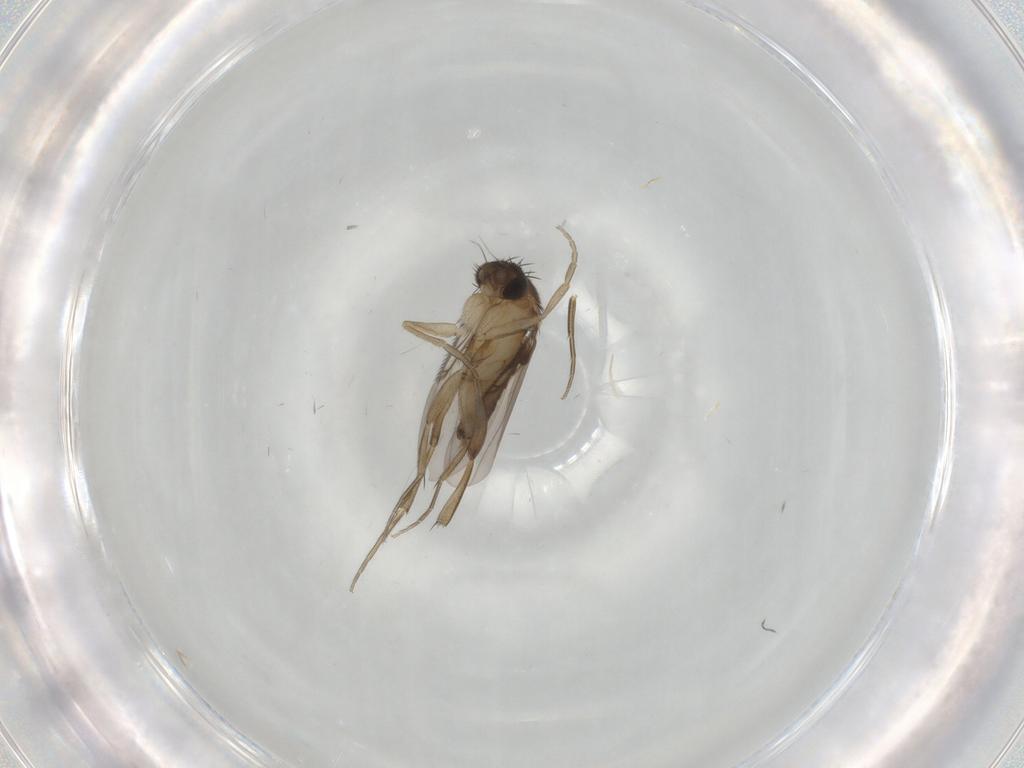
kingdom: Animalia
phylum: Arthropoda
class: Insecta
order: Diptera
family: Phoridae
